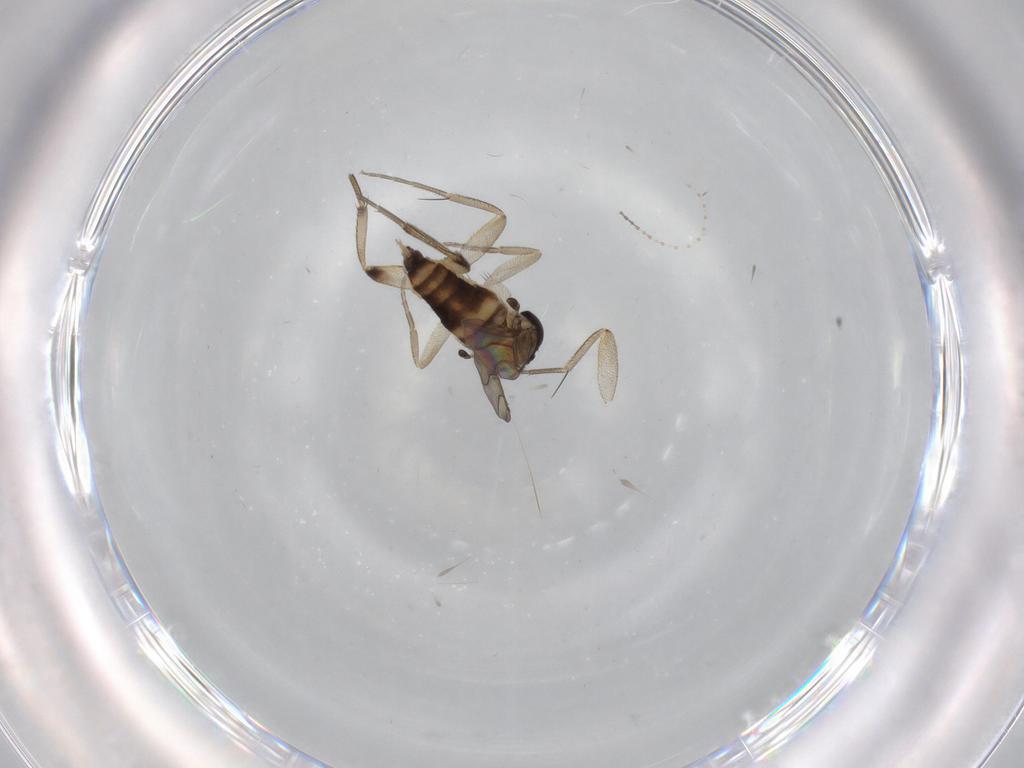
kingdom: Animalia
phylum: Arthropoda
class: Insecta
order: Diptera
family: Phoridae
